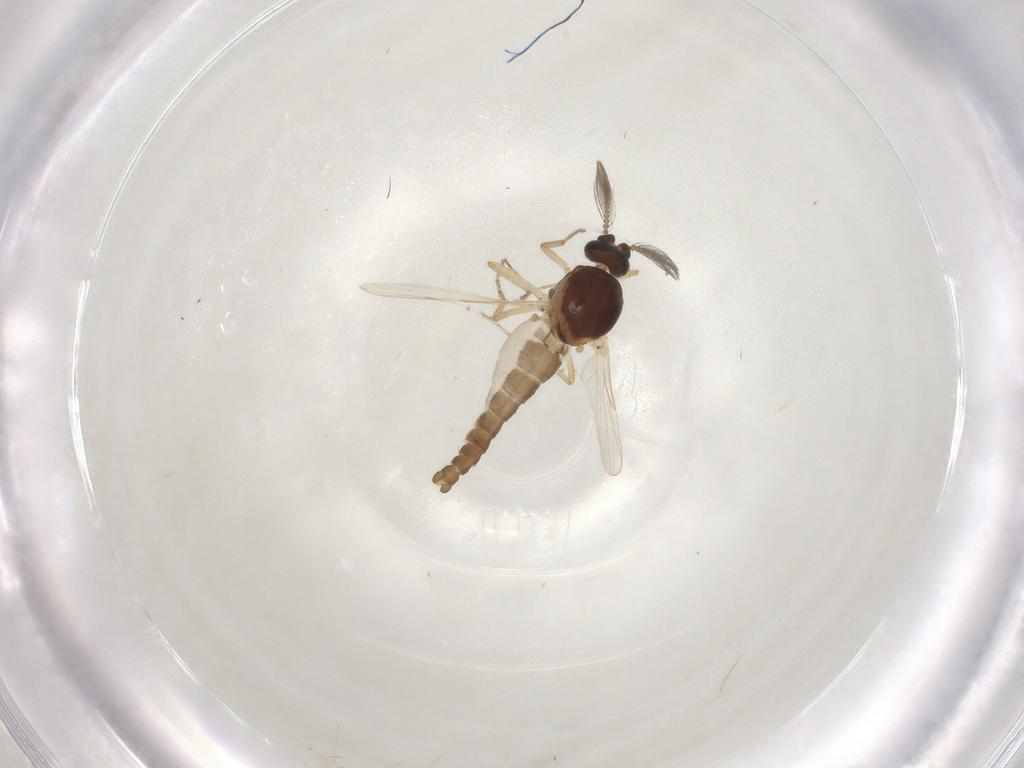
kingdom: Animalia
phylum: Arthropoda
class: Insecta
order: Diptera
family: Ceratopogonidae
